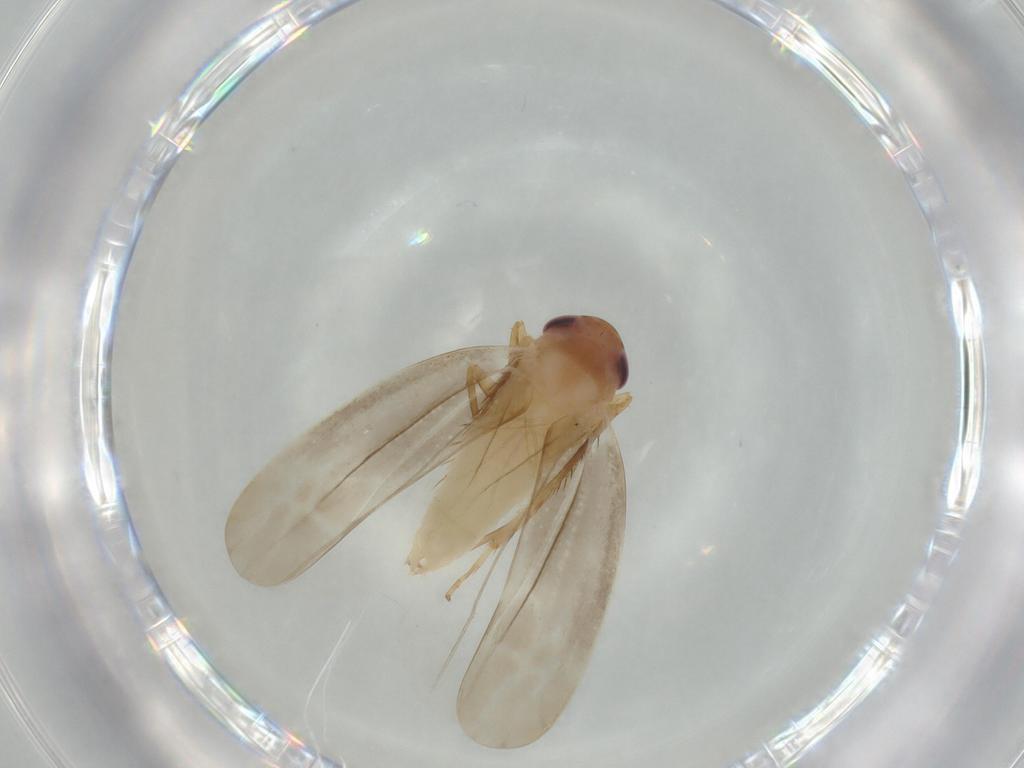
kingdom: Animalia
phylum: Arthropoda
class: Insecta
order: Hemiptera
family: Cicadellidae
